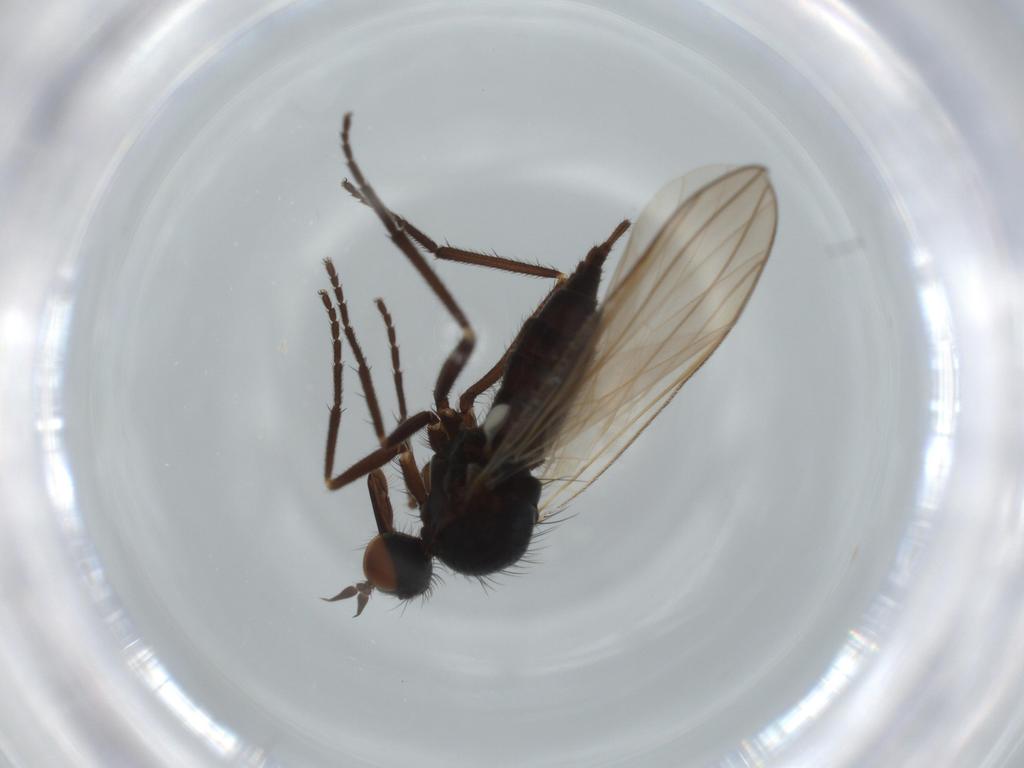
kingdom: Animalia
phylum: Arthropoda
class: Insecta
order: Diptera
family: Empididae
